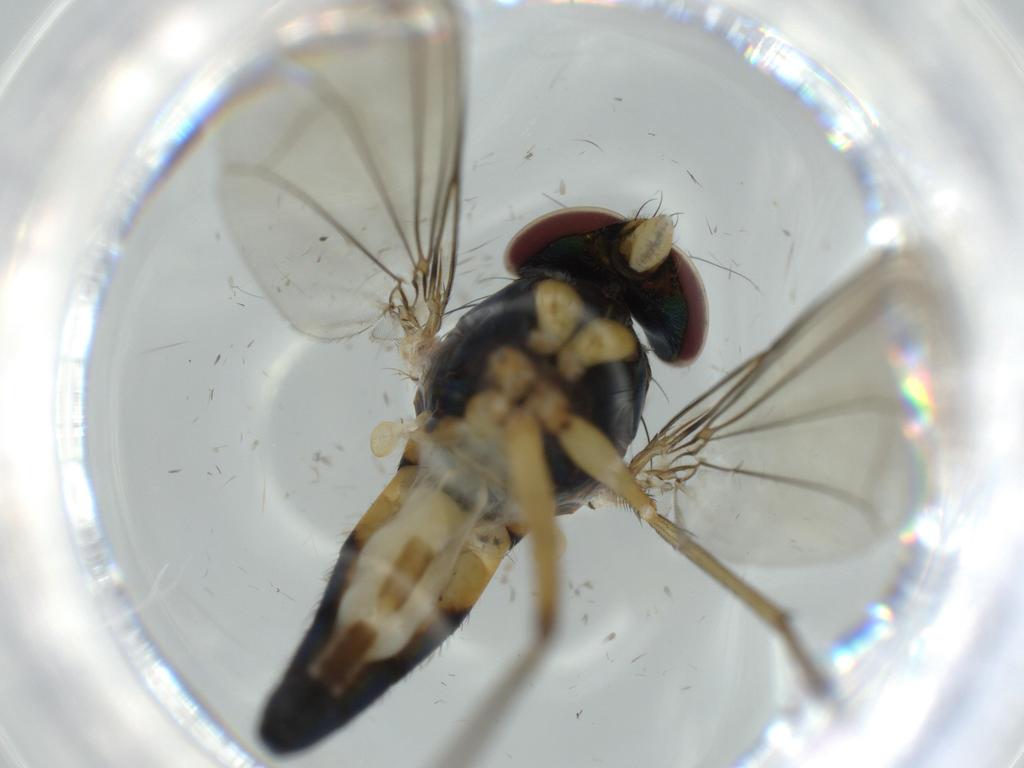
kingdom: Animalia
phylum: Arthropoda
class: Insecta
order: Diptera
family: Dolichopodidae
